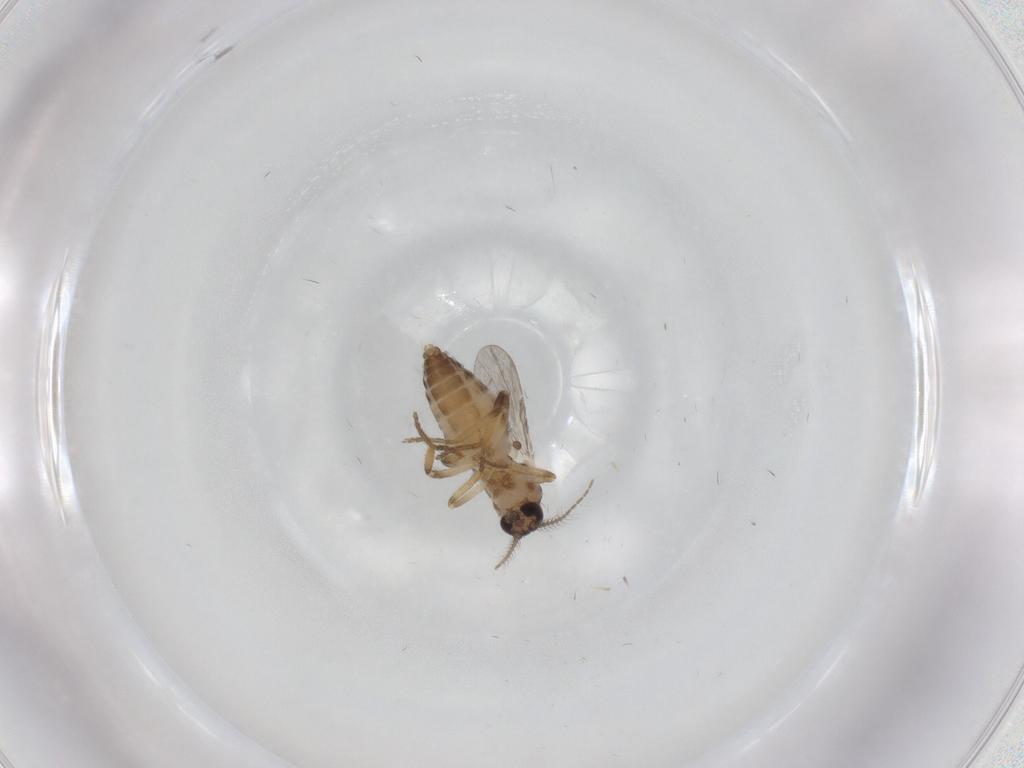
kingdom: Animalia
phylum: Arthropoda
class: Insecta
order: Diptera
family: Ceratopogonidae
